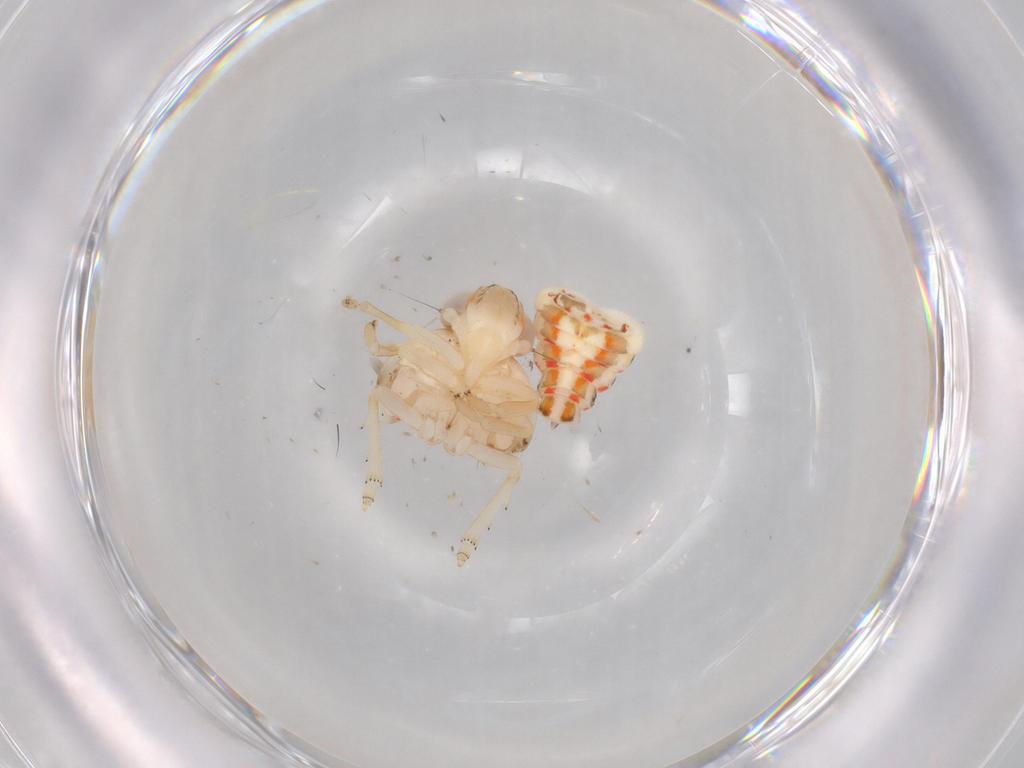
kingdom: Animalia
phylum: Arthropoda
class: Insecta
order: Hemiptera
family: Nogodinidae
